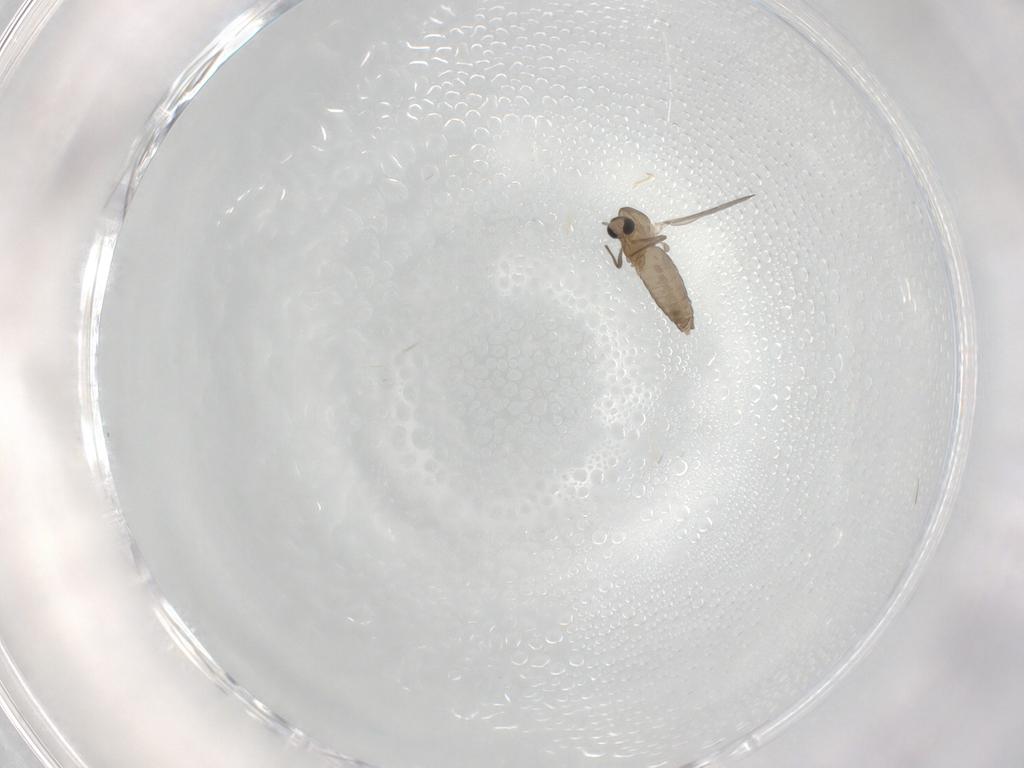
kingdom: Animalia
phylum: Arthropoda
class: Insecta
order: Diptera
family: Chironomidae
